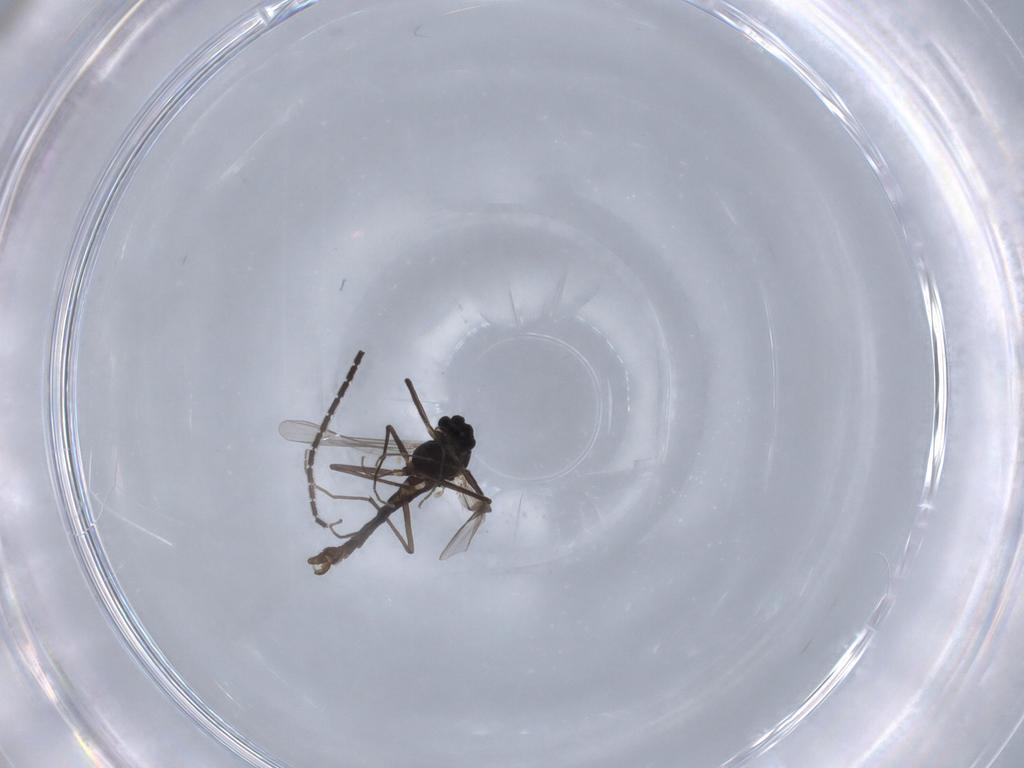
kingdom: Animalia
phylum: Arthropoda
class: Insecta
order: Diptera
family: Chironomidae
